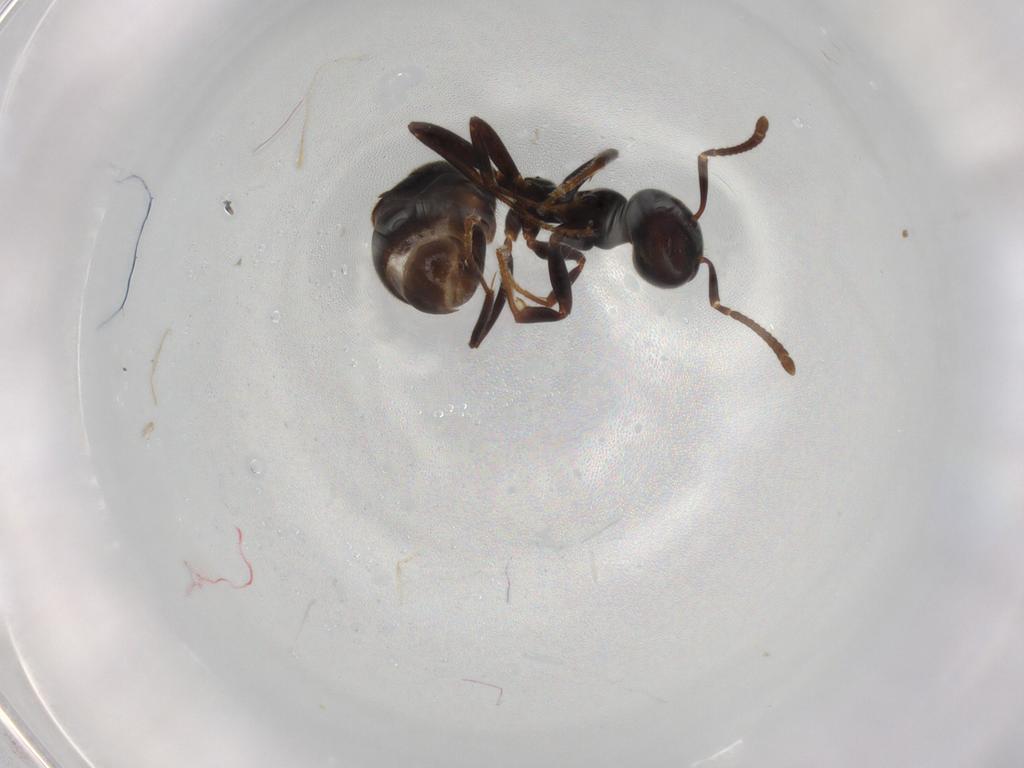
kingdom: Animalia
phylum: Arthropoda
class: Insecta
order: Hymenoptera
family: Formicidae
